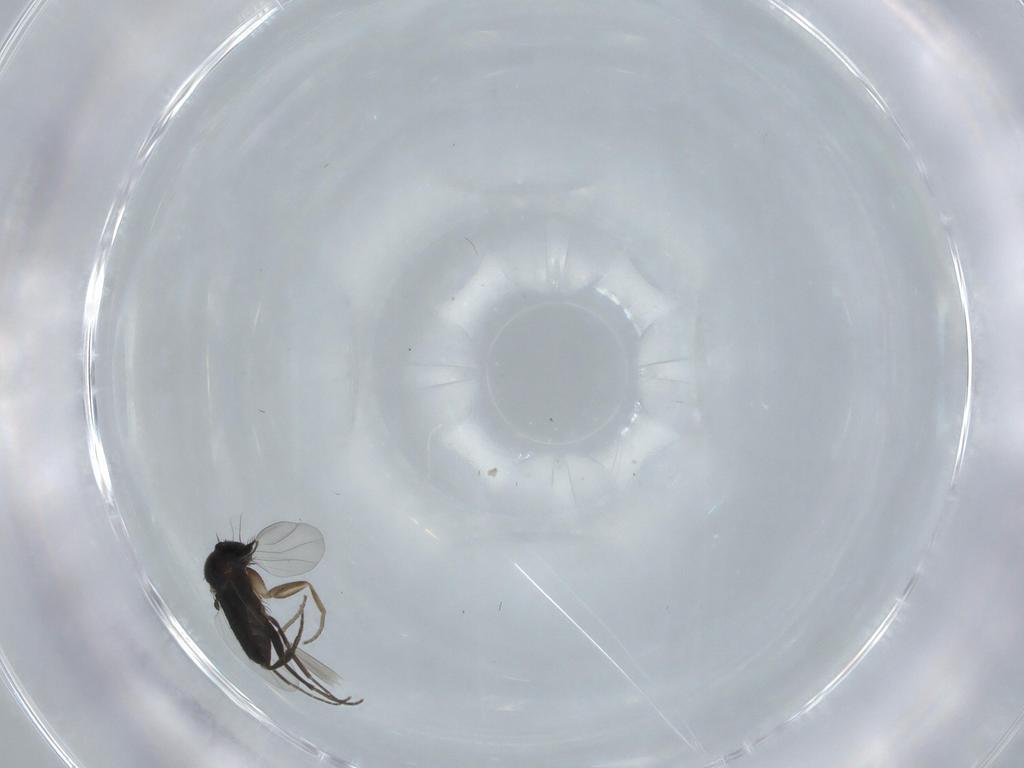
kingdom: Animalia
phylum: Arthropoda
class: Insecta
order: Diptera
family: Phoridae
